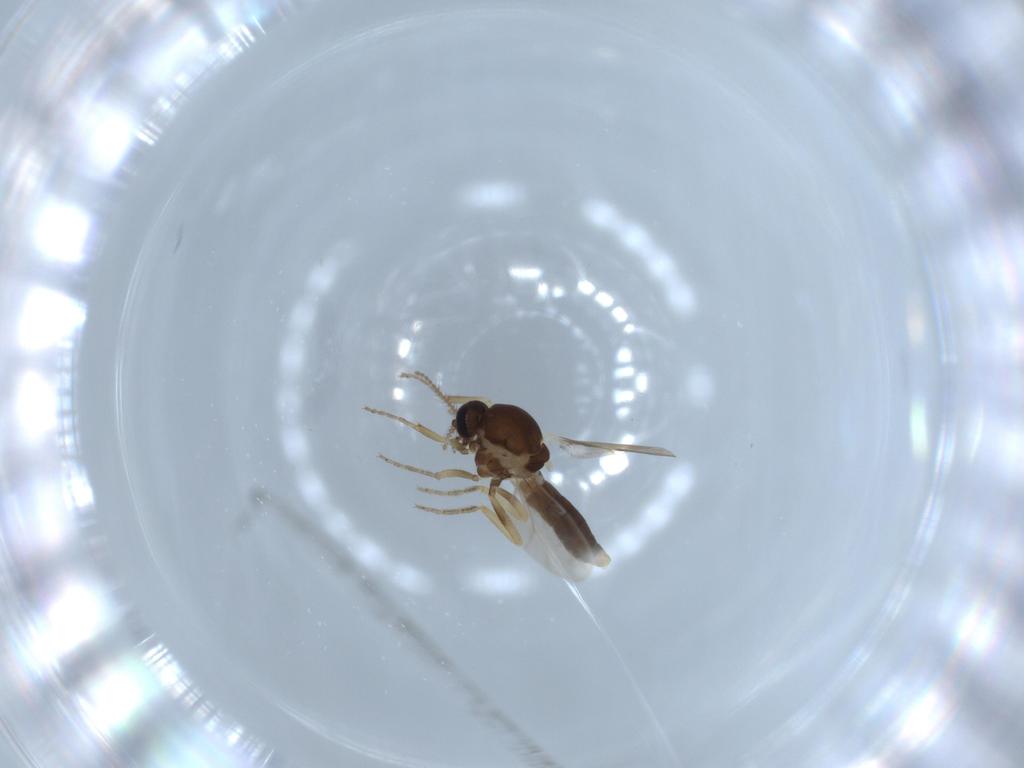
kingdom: Animalia
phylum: Arthropoda
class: Insecta
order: Diptera
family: Ceratopogonidae
